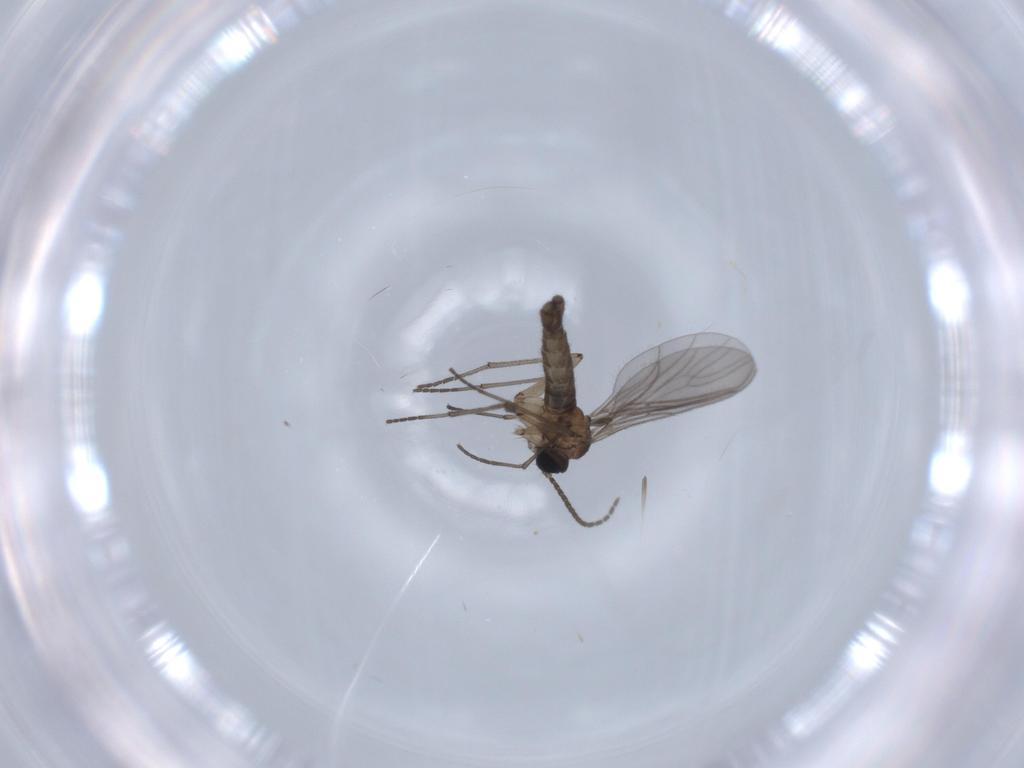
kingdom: Animalia
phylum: Arthropoda
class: Insecta
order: Diptera
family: Sciaridae
